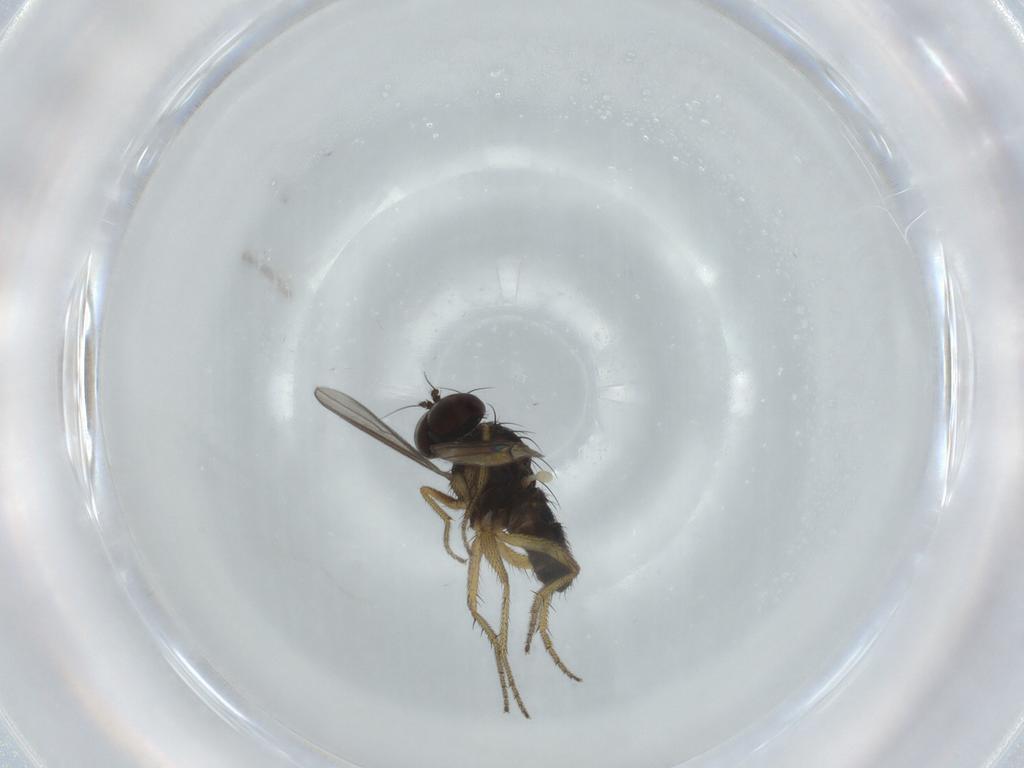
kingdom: Animalia
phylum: Arthropoda
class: Insecta
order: Diptera
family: Dolichopodidae
